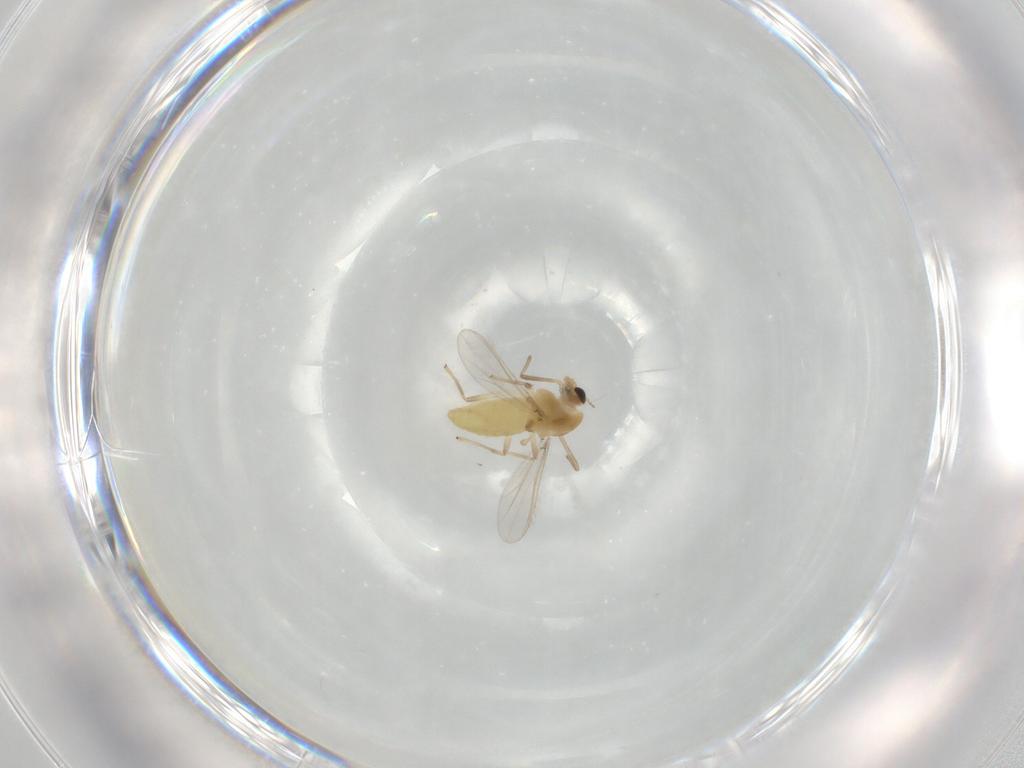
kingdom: Animalia
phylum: Arthropoda
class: Insecta
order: Diptera
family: Chironomidae
